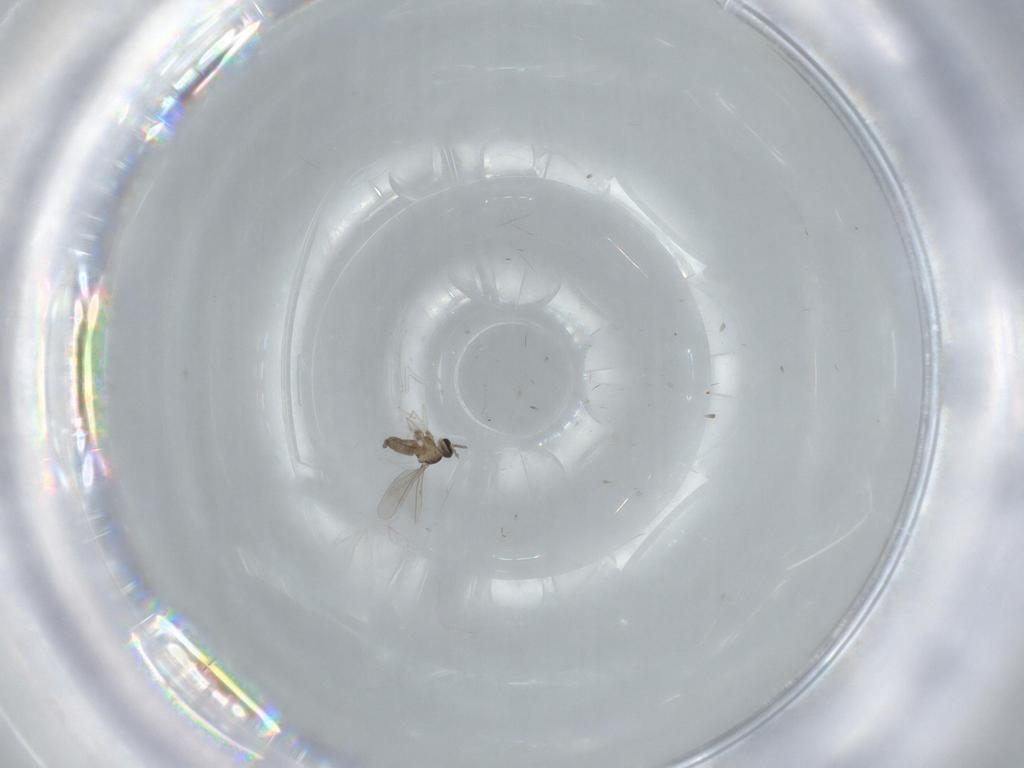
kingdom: Animalia
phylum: Arthropoda
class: Insecta
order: Diptera
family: Cecidomyiidae
